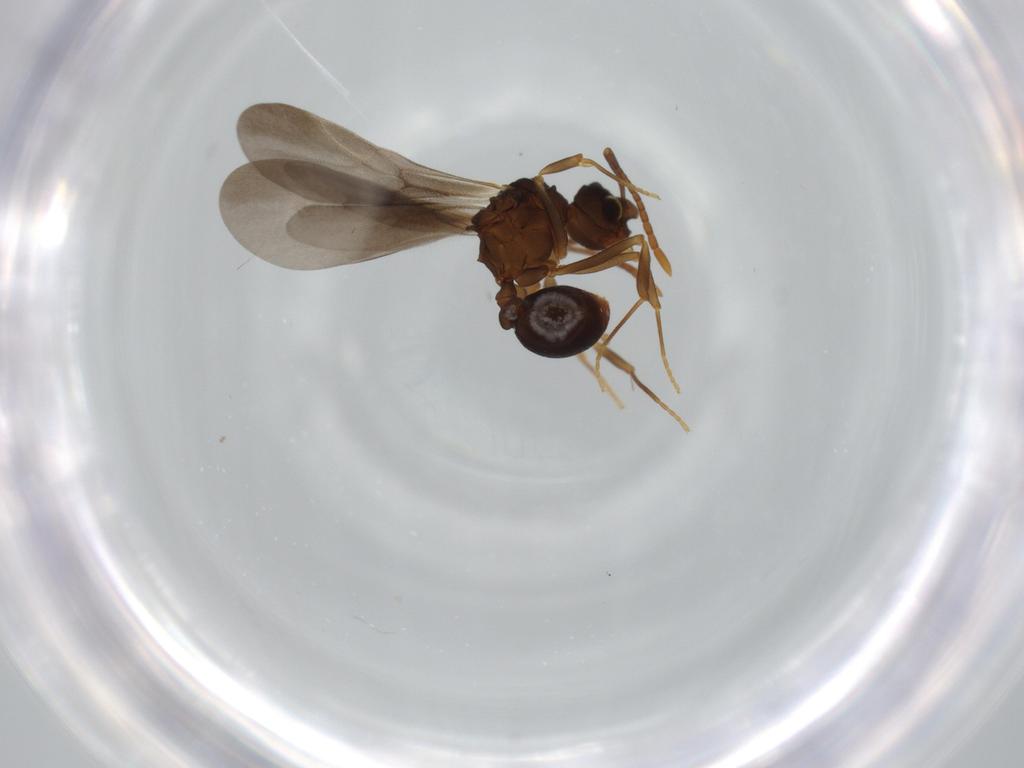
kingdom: Animalia
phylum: Arthropoda
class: Insecta
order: Hymenoptera
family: Formicidae
